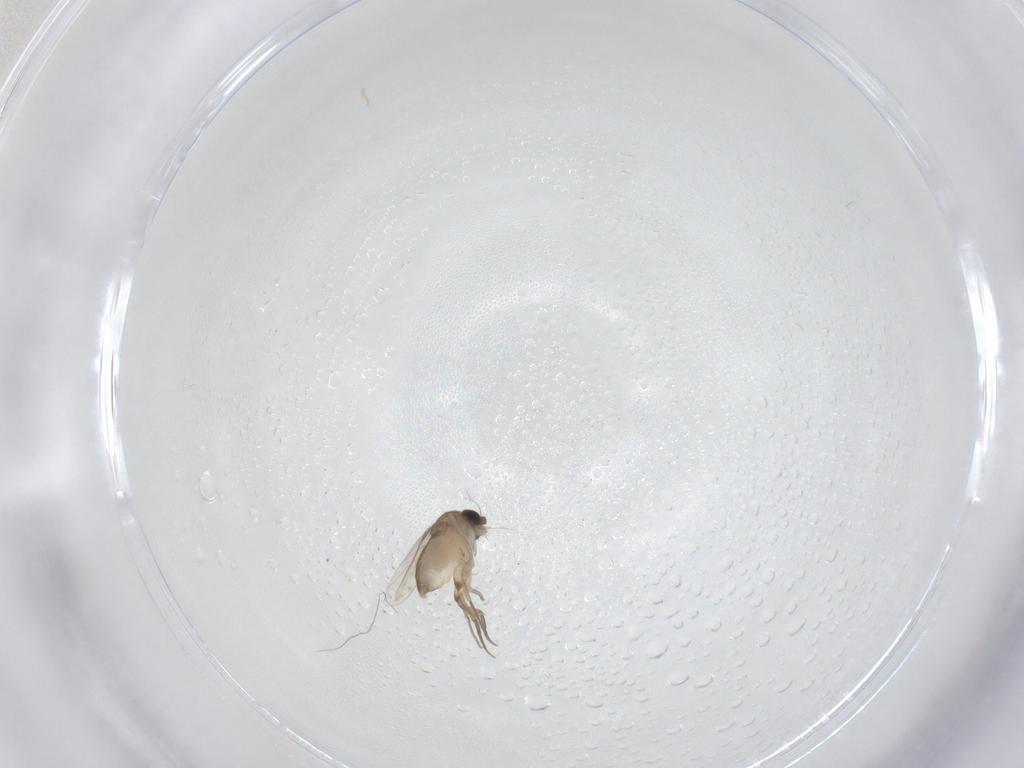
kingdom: Animalia
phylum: Arthropoda
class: Insecta
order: Diptera
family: Phoridae
